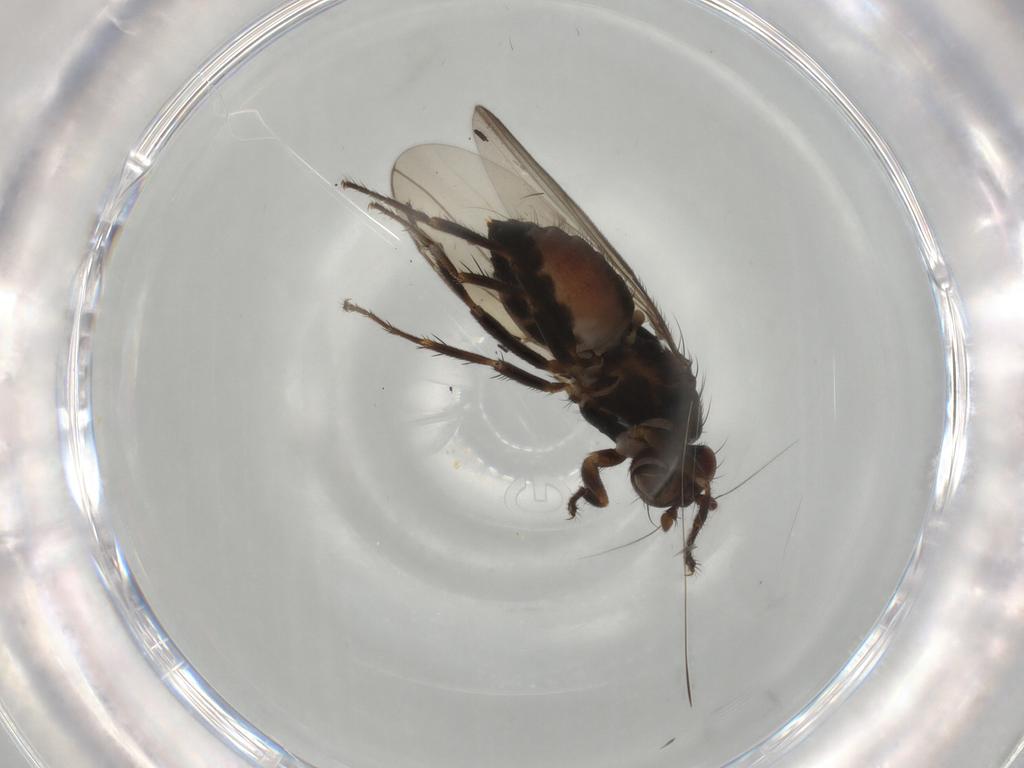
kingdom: Animalia
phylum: Arthropoda
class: Insecta
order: Diptera
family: Sphaeroceridae
